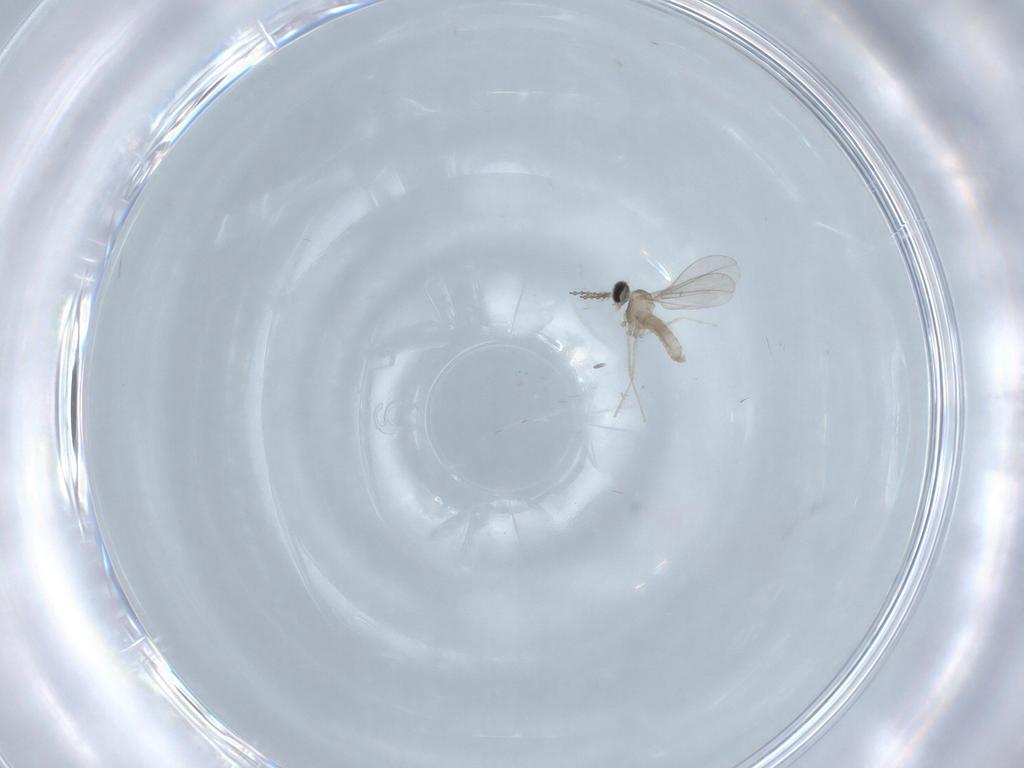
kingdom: Animalia
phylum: Arthropoda
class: Insecta
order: Diptera
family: Cecidomyiidae
